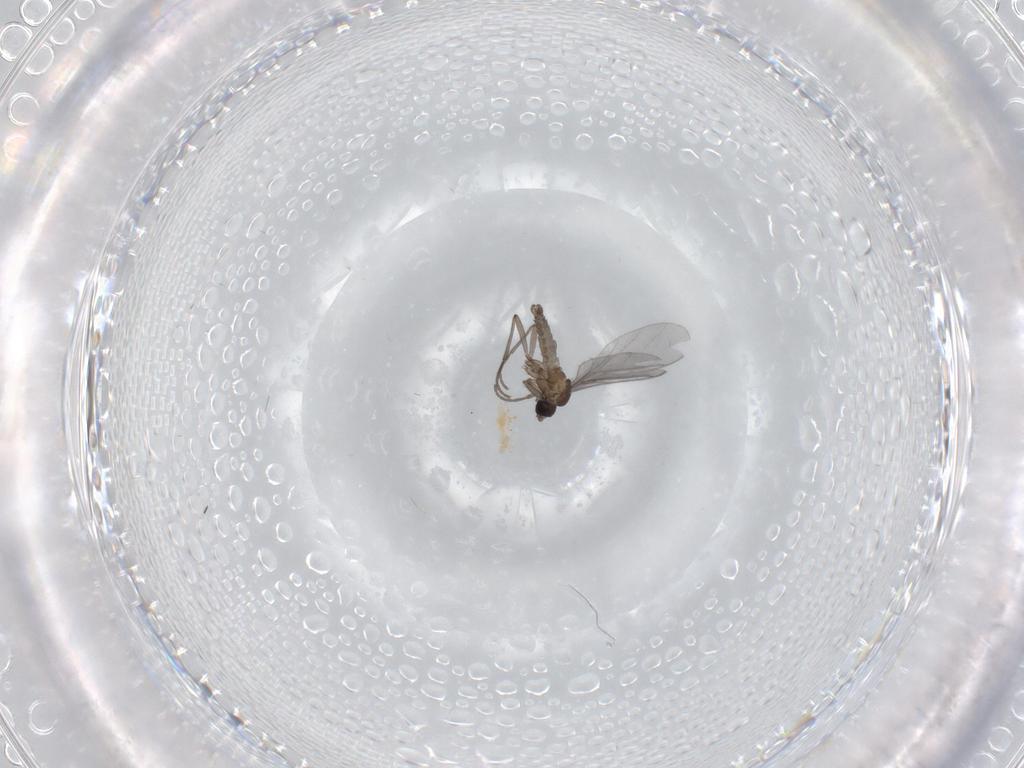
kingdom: Animalia
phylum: Arthropoda
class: Insecta
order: Diptera
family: Sciaridae
